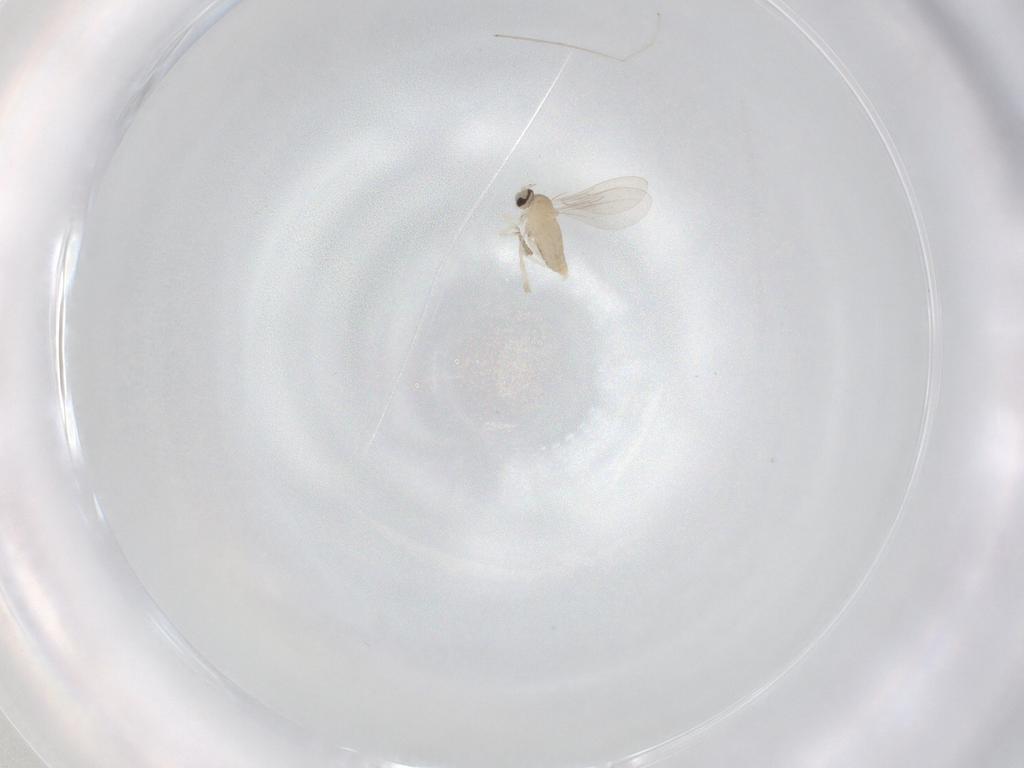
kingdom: Animalia
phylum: Arthropoda
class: Insecta
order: Diptera
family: Cecidomyiidae
